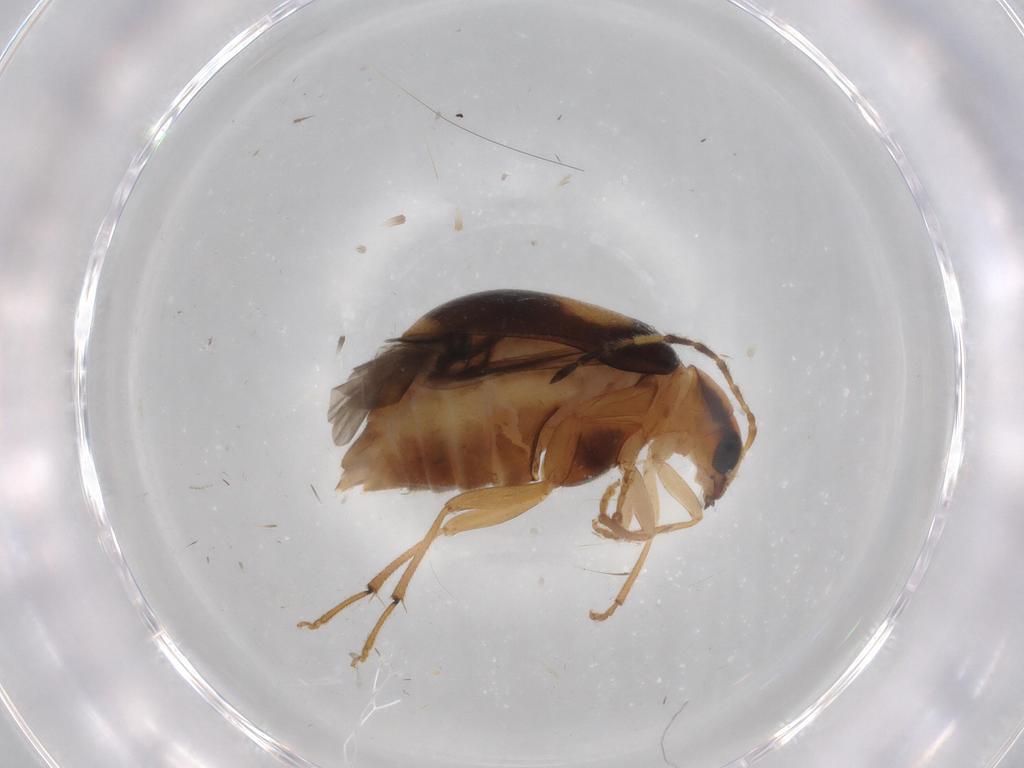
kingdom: Animalia
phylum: Arthropoda
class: Insecta
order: Coleoptera
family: Chrysomelidae
